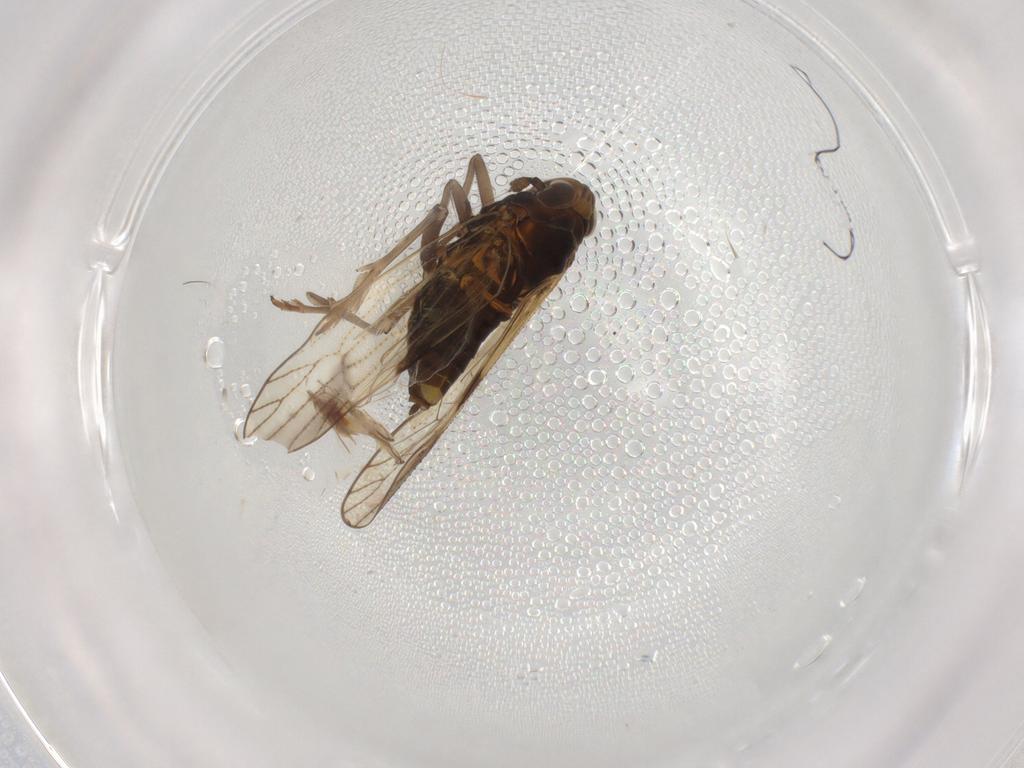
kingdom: Animalia
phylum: Arthropoda
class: Insecta
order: Hemiptera
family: Delphacidae
